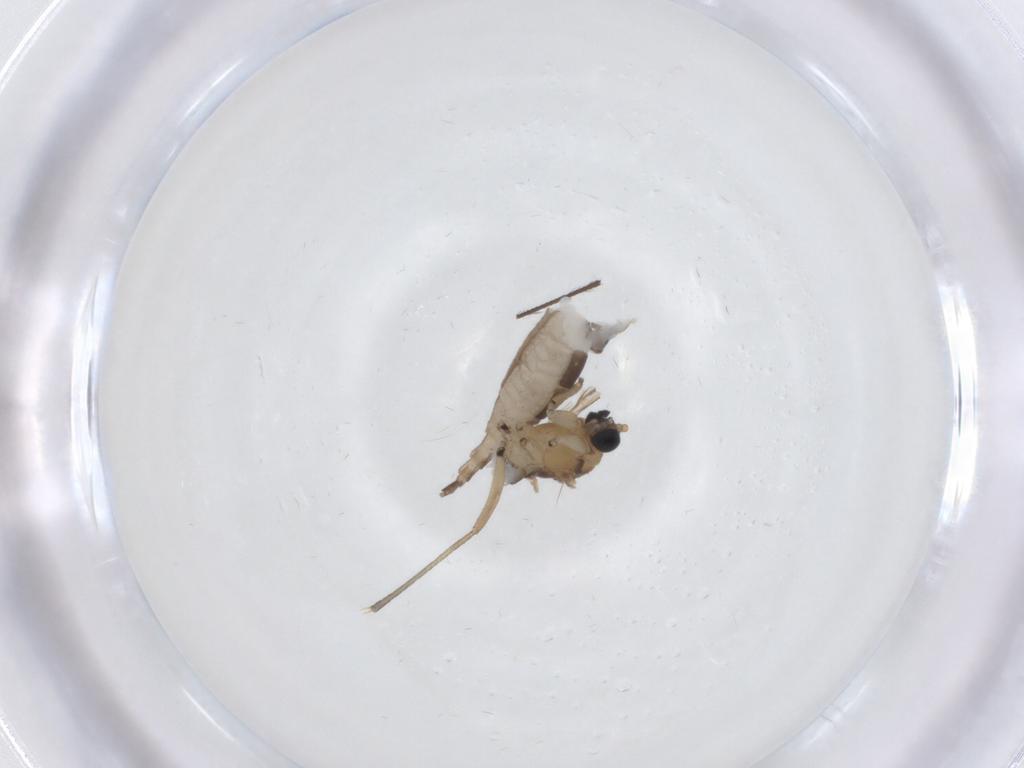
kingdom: Animalia
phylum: Arthropoda
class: Insecta
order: Diptera
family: Sciaridae
